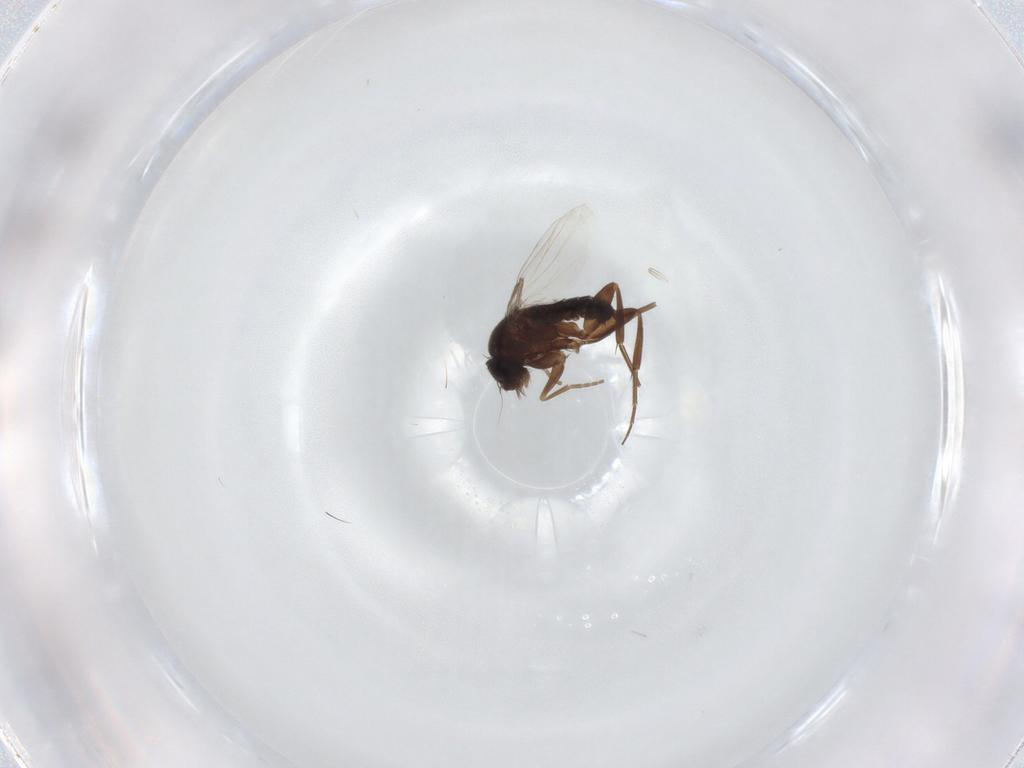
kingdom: Animalia
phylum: Arthropoda
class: Insecta
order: Diptera
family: Phoridae
